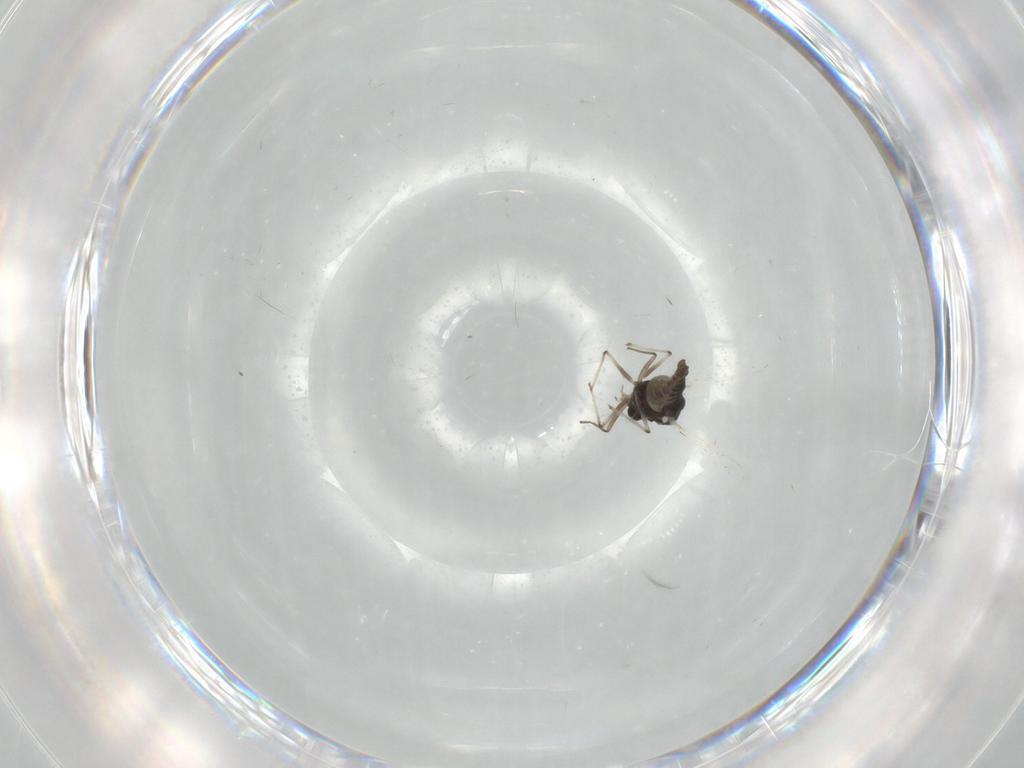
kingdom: Animalia
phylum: Arthropoda
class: Insecta
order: Diptera
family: Chironomidae
